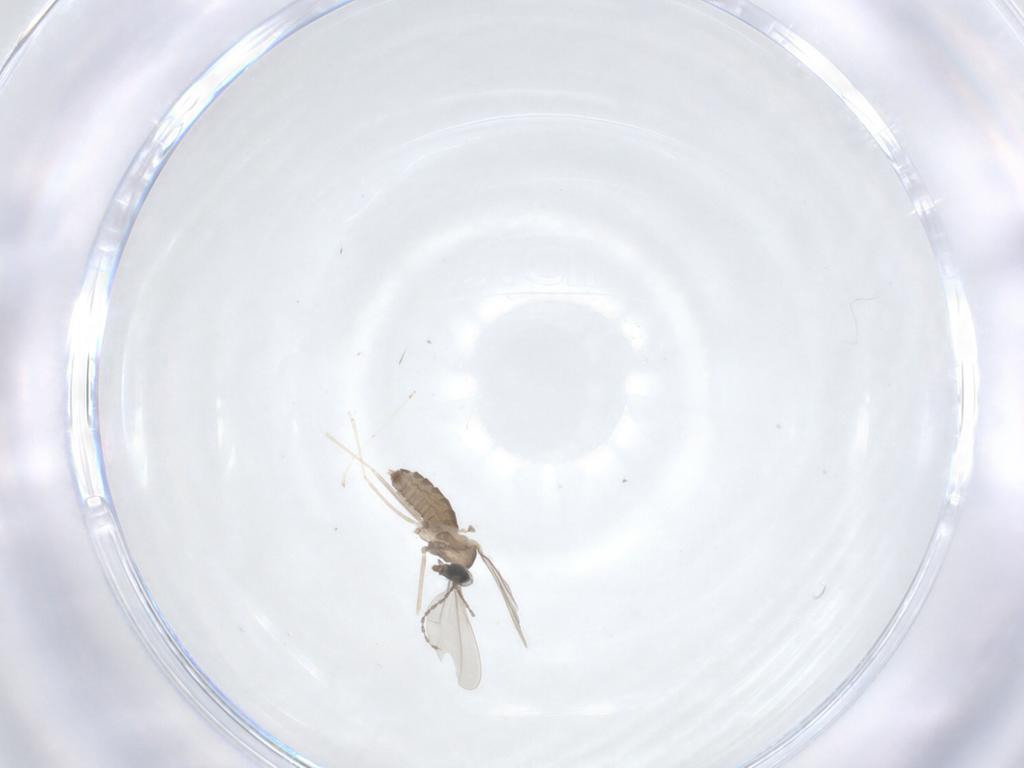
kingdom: Animalia
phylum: Arthropoda
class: Insecta
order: Diptera
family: Cecidomyiidae
